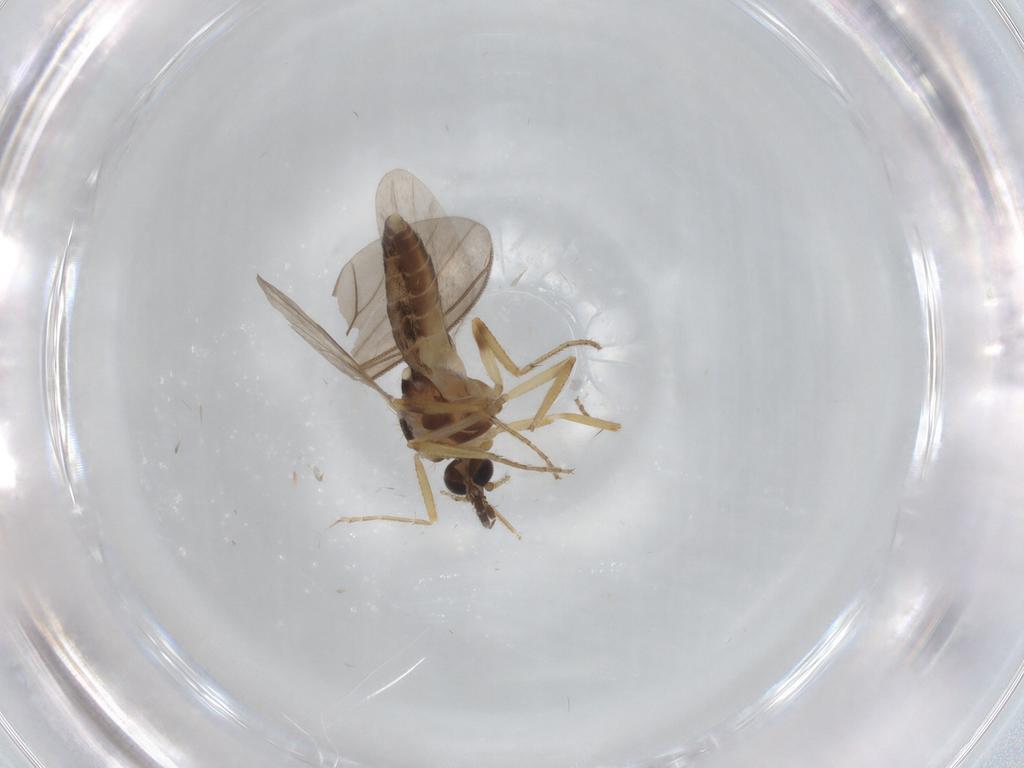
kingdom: Animalia
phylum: Arthropoda
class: Insecta
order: Diptera
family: Ceratopogonidae
